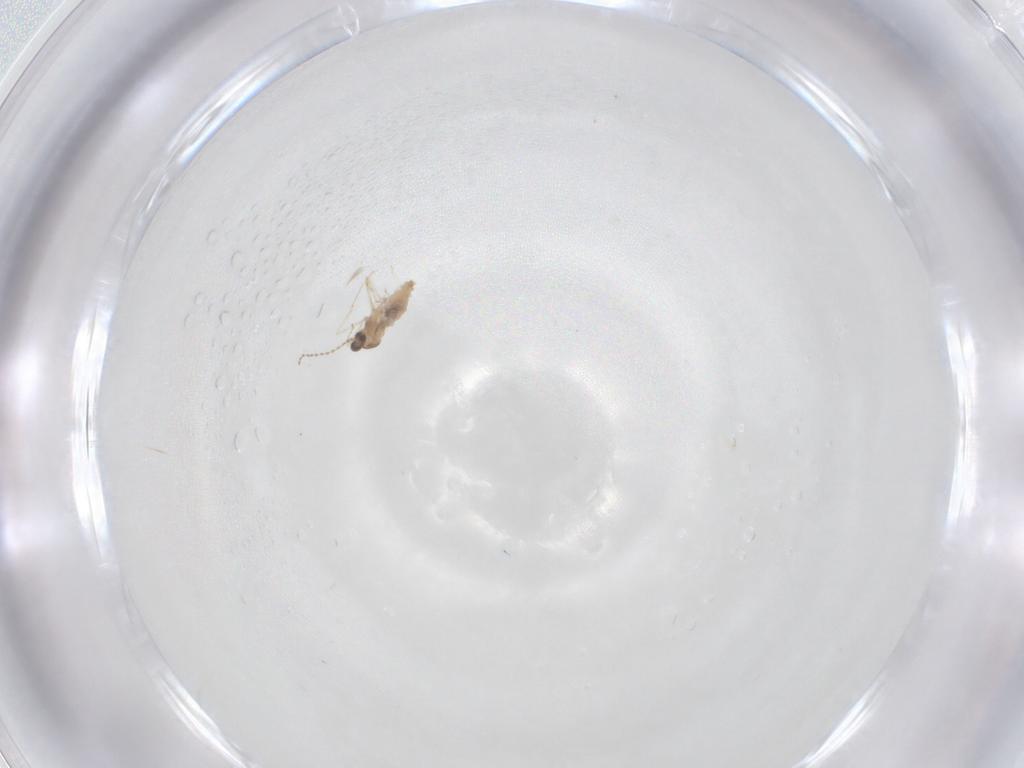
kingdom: Animalia
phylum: Arthropoda
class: Insecta
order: Diptera
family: Cecidomyiidae
